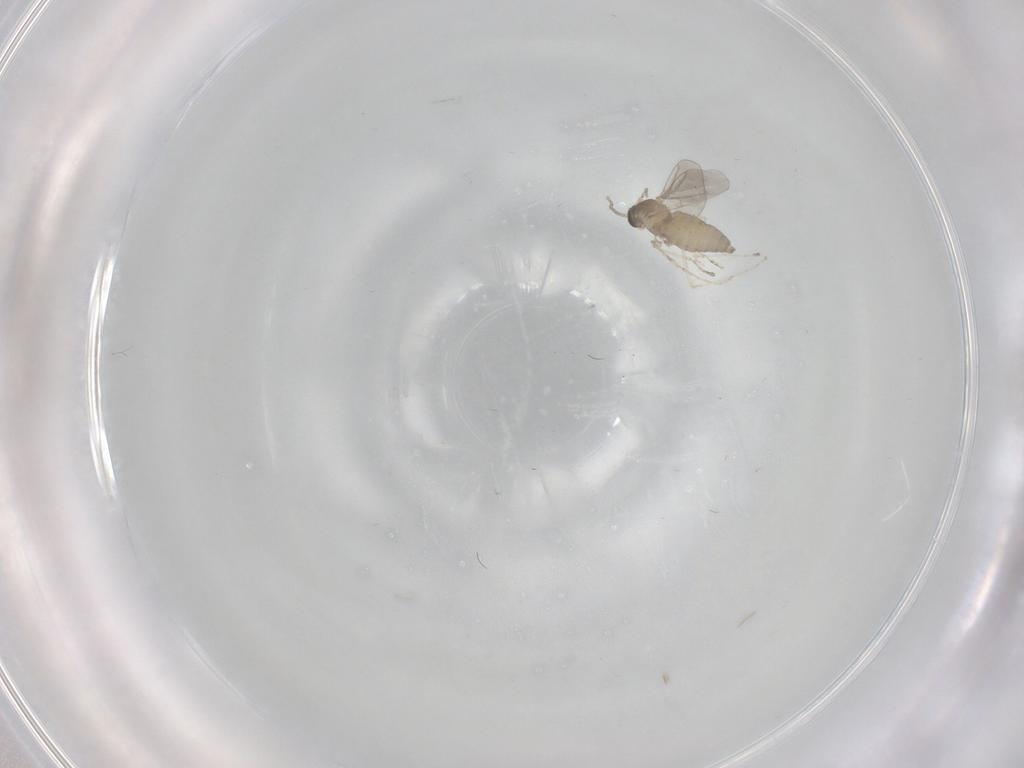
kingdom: Animalia
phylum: Arthropoda
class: Insecta
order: Diptera
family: Cecidomyiidae
